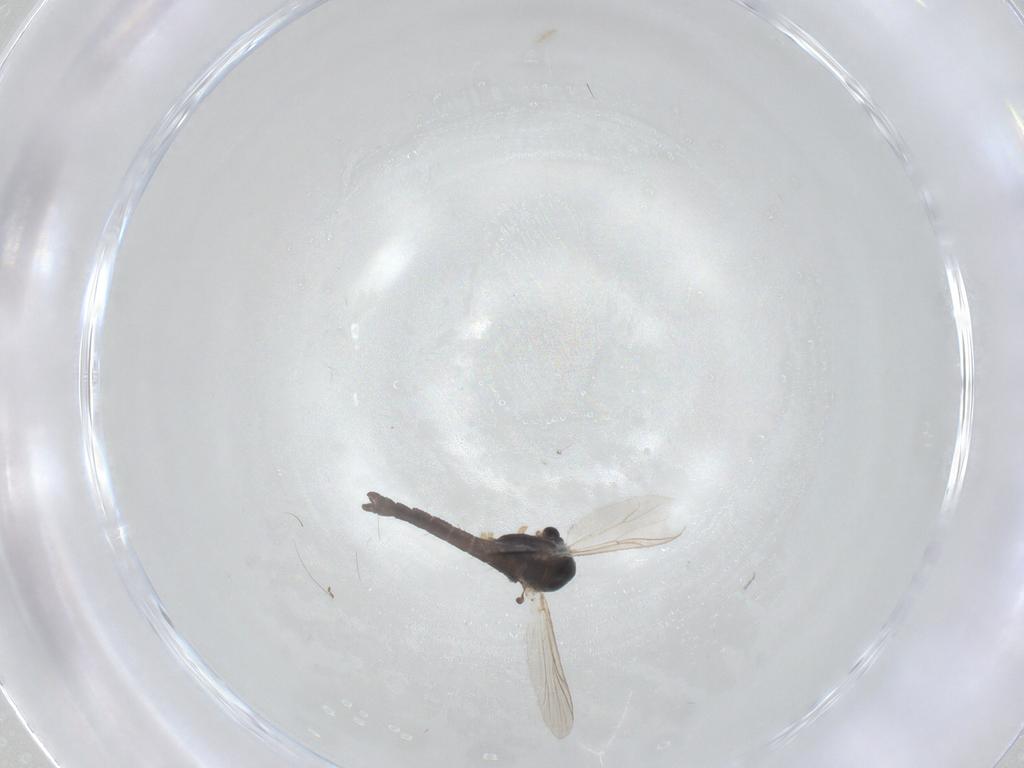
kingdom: Animalia
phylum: Arthropoda
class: Insecta
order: Diptera
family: Chironomidae
